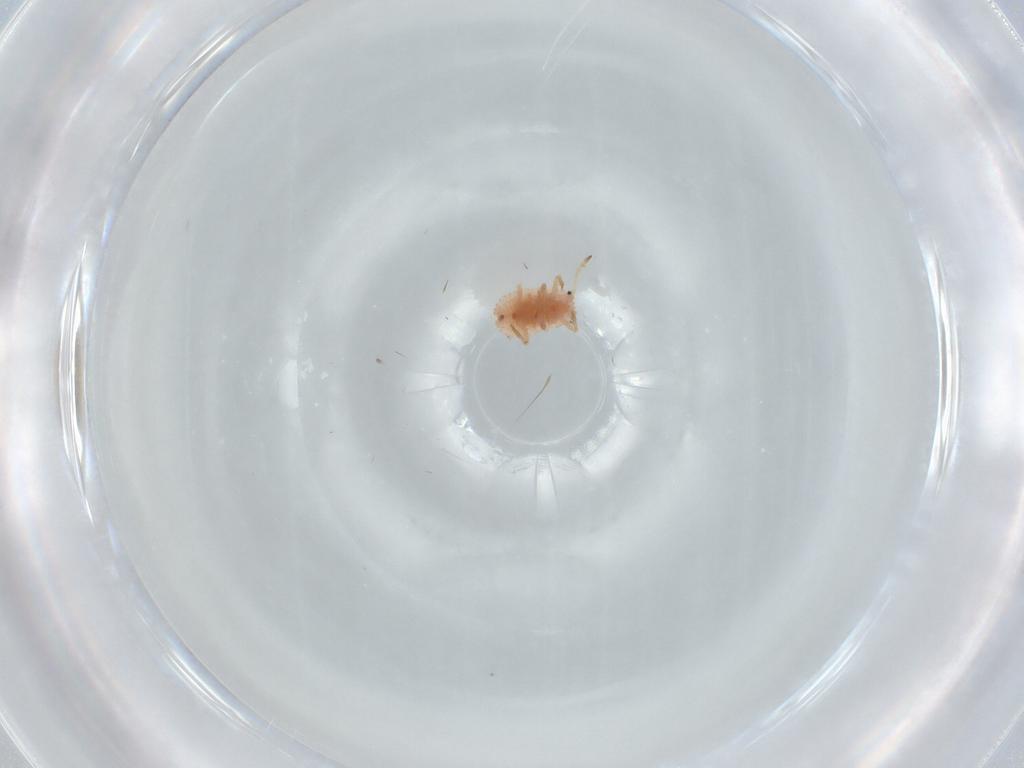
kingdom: Animalia
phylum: Arthropoda
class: Insecta
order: Hemiptera
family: Coccoidea_incertae_sedis
